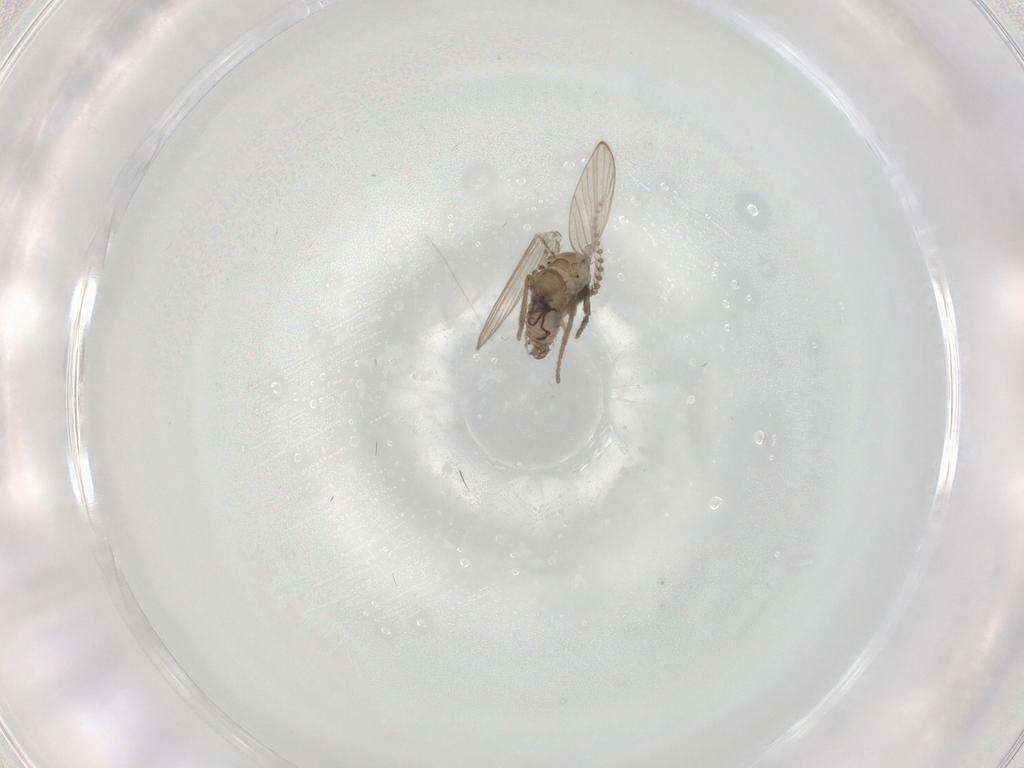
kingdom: Animalia
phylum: Arthropoda
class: Insecta
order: Diptera
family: Psychodidae
